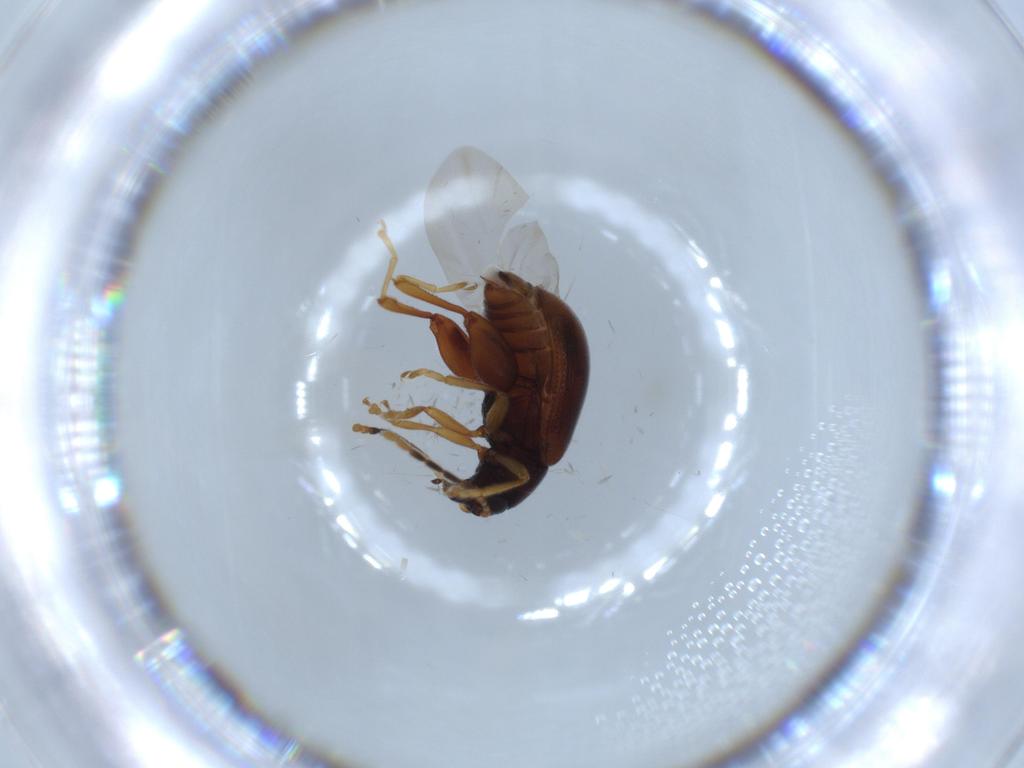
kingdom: Animalia
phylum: Arthropoda
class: Insecta
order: Coleoptera
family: Chrysomelidae
